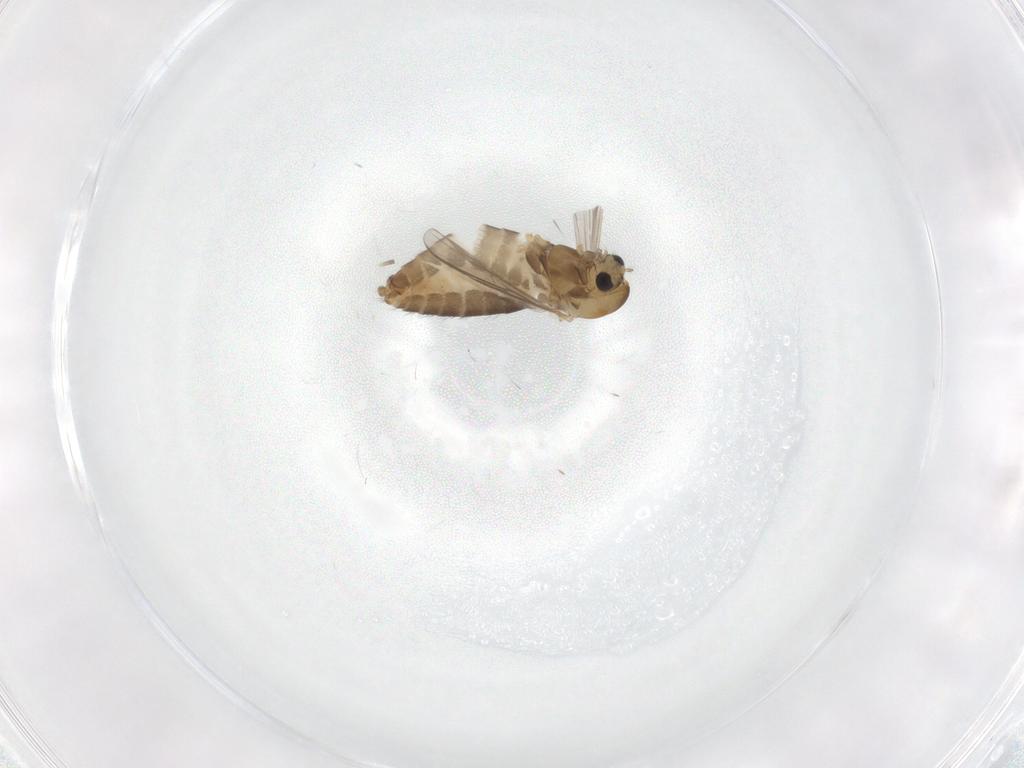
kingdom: Animalia
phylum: Arthropoda
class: Insecta
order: Diptera
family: Chironomidae
